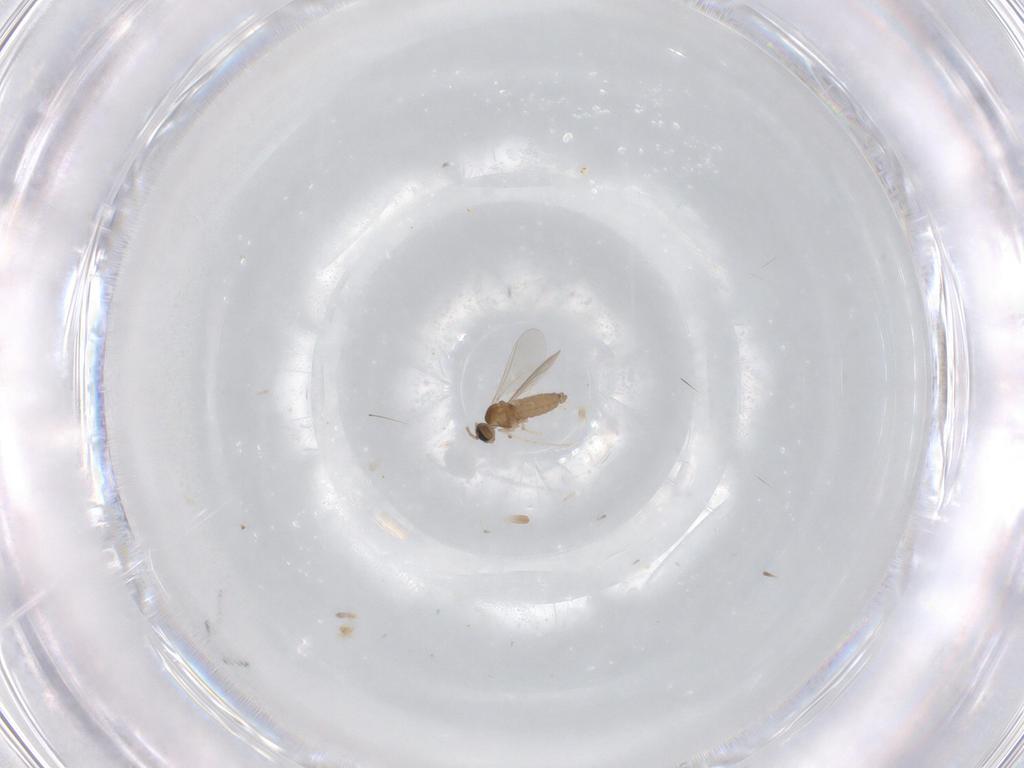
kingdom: Animalia
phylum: Arthropoda
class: Insecta
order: Diptera
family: Cecidomyiidae
